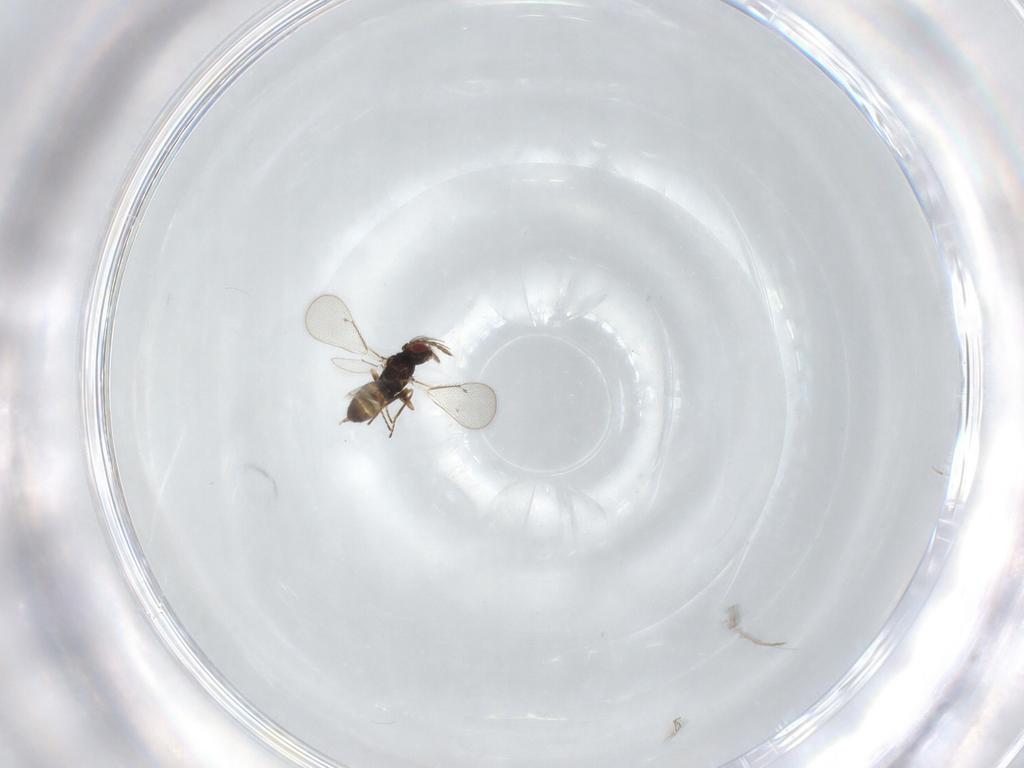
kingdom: Animalia
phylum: Arthropoda
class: Insecta
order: Hymenoptera
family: Eulophidae
